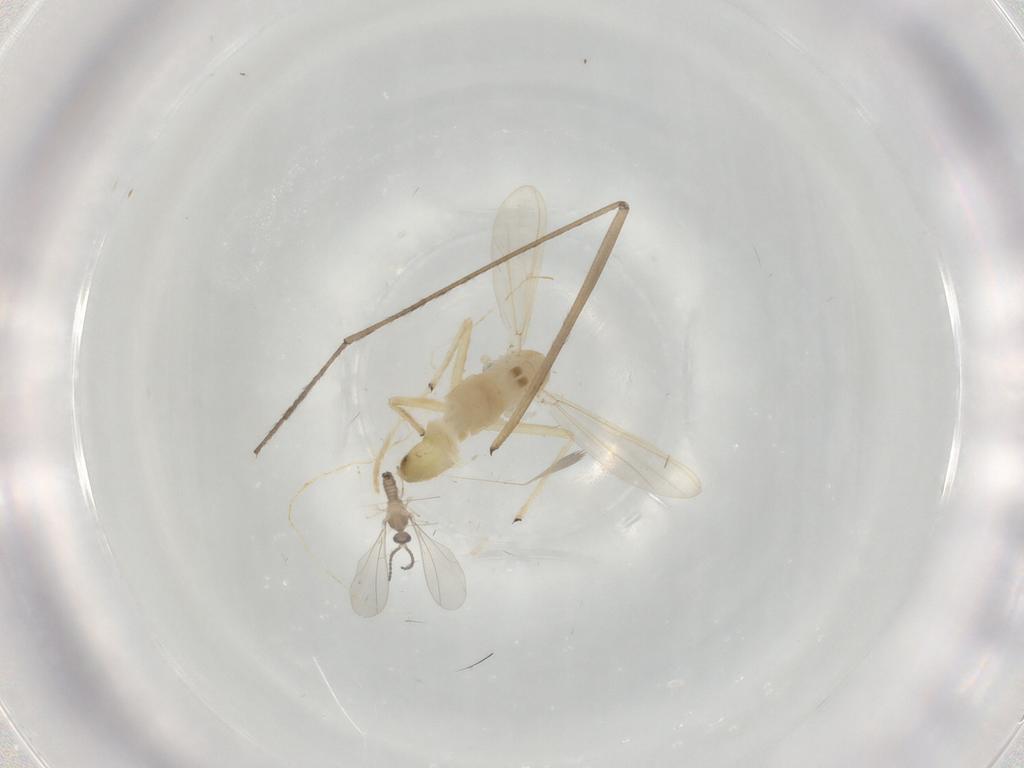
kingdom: Animalia
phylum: Arthropoda
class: Insecta
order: Diptera
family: Chironomidae
